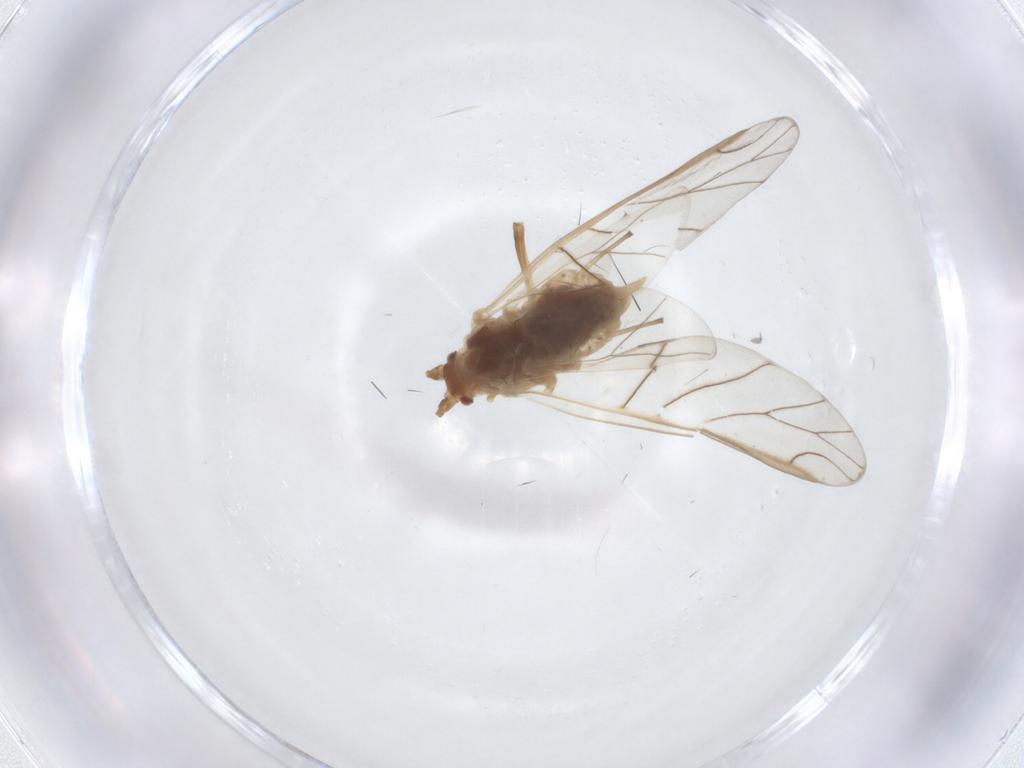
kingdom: Animalia
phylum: Arthropoda
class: Insecta
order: Hemiptera
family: Aphididae
